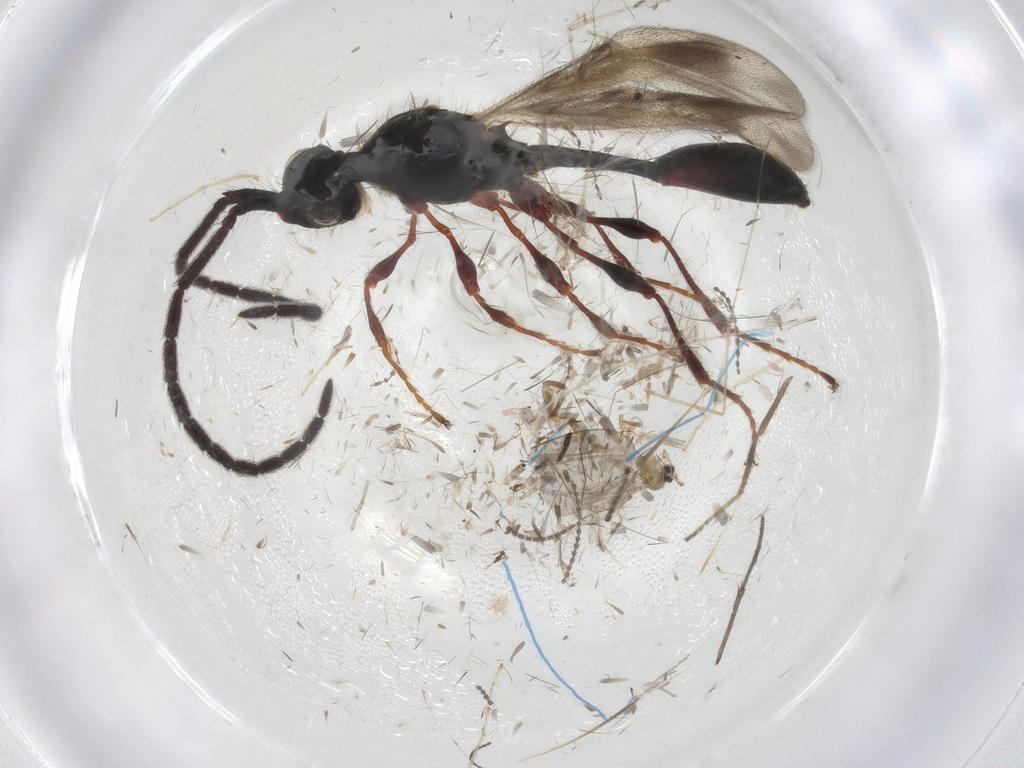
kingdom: Animalia
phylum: Arthropoda
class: Insecta
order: Diptera
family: Cecidomyiidae
